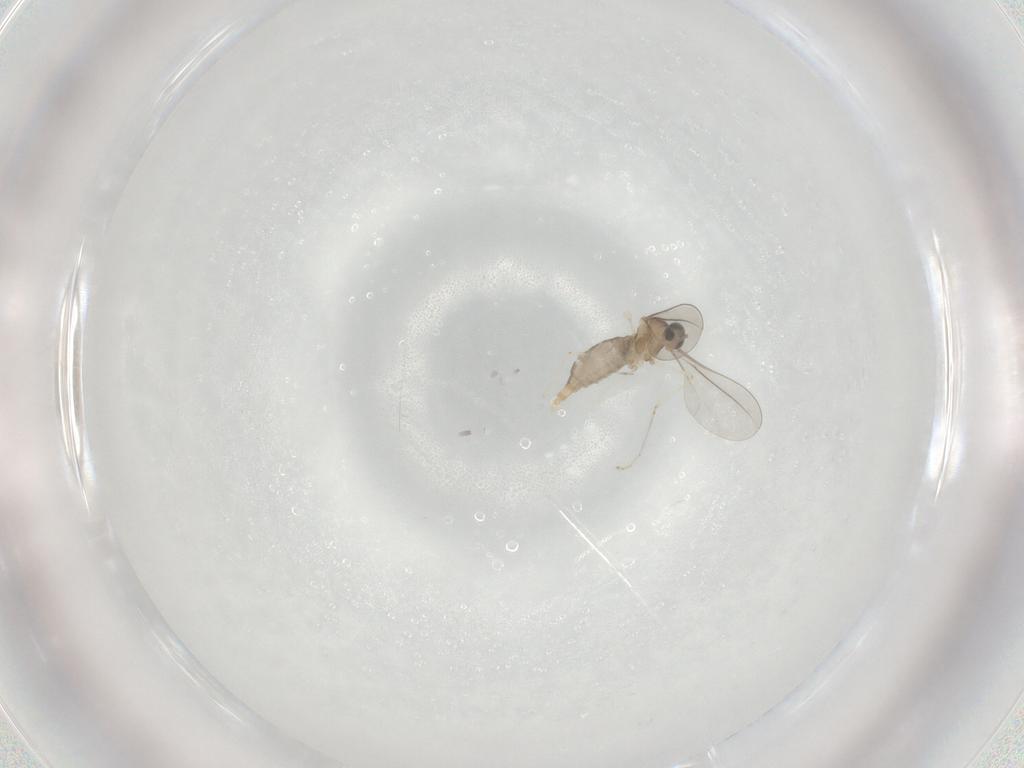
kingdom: Animalia
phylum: Arthropoda
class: Insecta
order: Diptera
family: Cecidomyiidae
